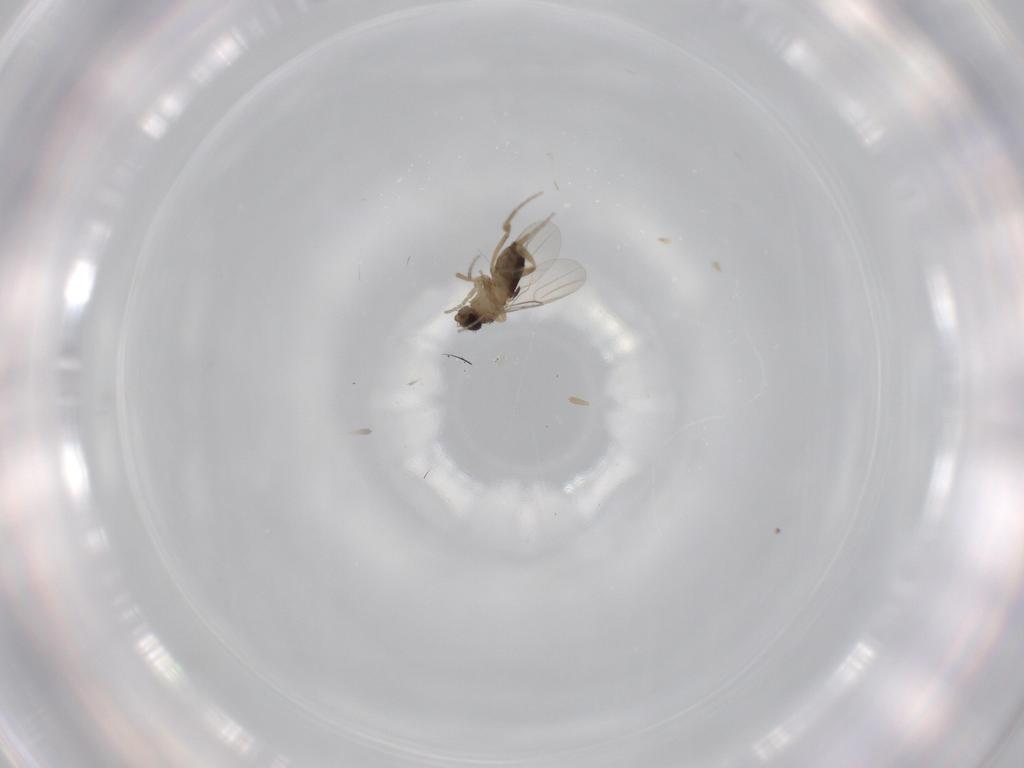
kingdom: Animalia
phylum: Arthropoda
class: Insecta
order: Diptera
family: Phoridae
